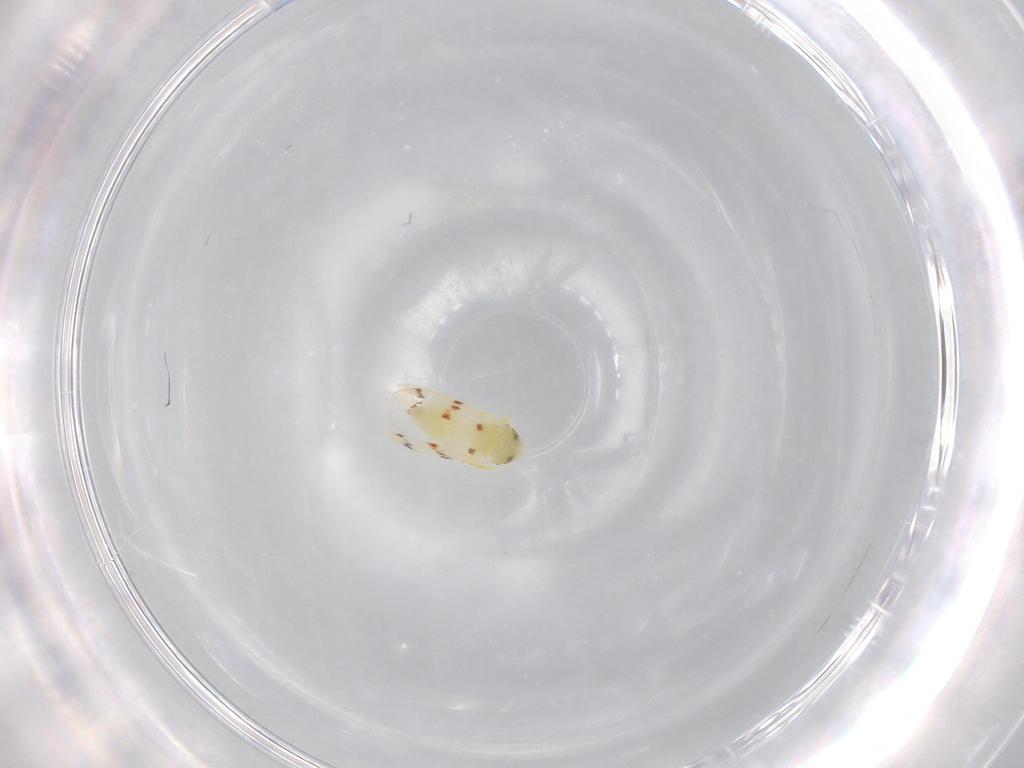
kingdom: Animalia
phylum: Arthropoda
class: Insecta
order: Hemiptera
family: Aleyrodidae
